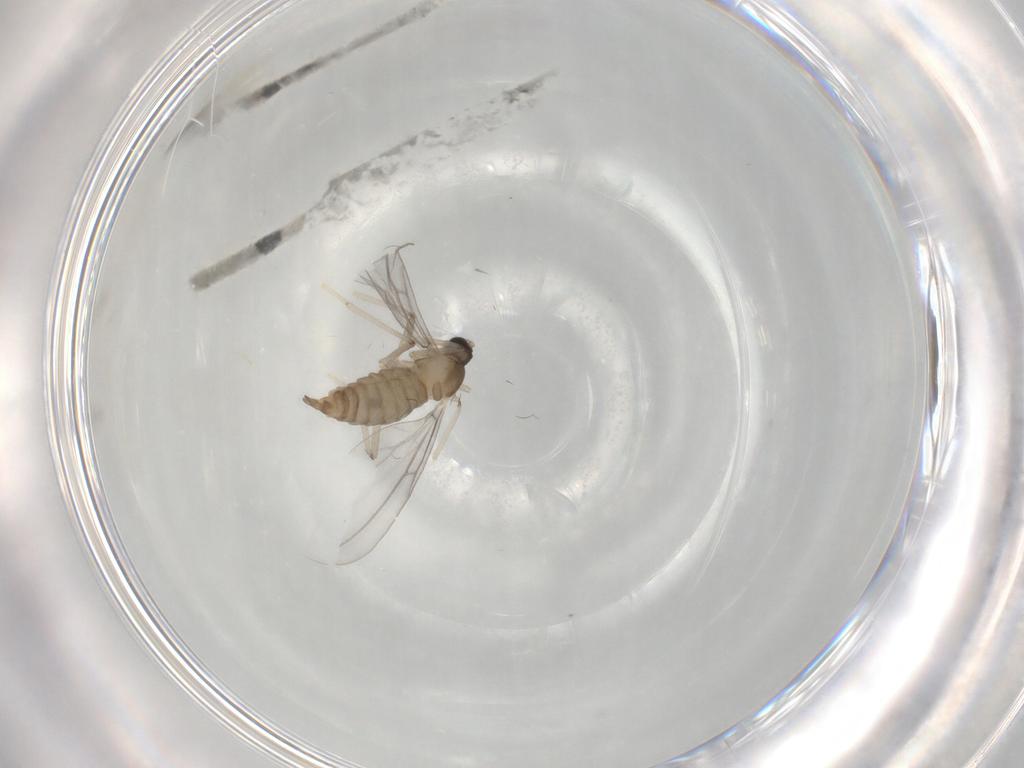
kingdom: Animalia
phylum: Arthropoda
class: Insecta
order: Diptera
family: Cecidomyiidae
